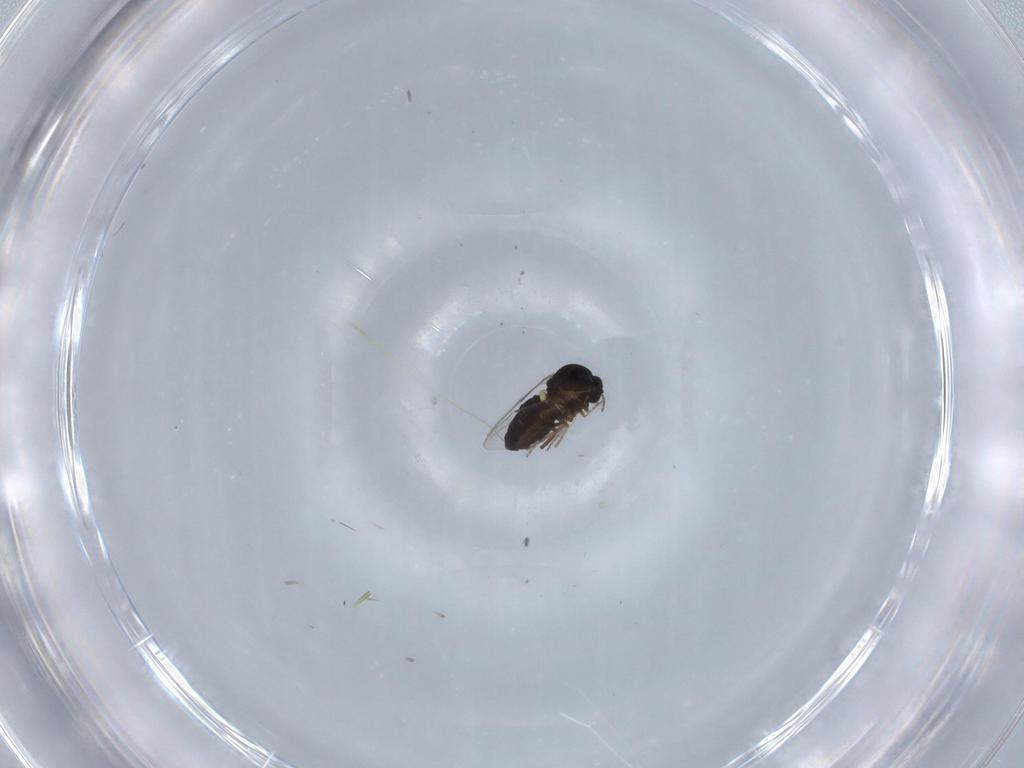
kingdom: Animalia
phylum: Arthropoda
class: Insecta
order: Diptera
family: Ceratopogonidae
